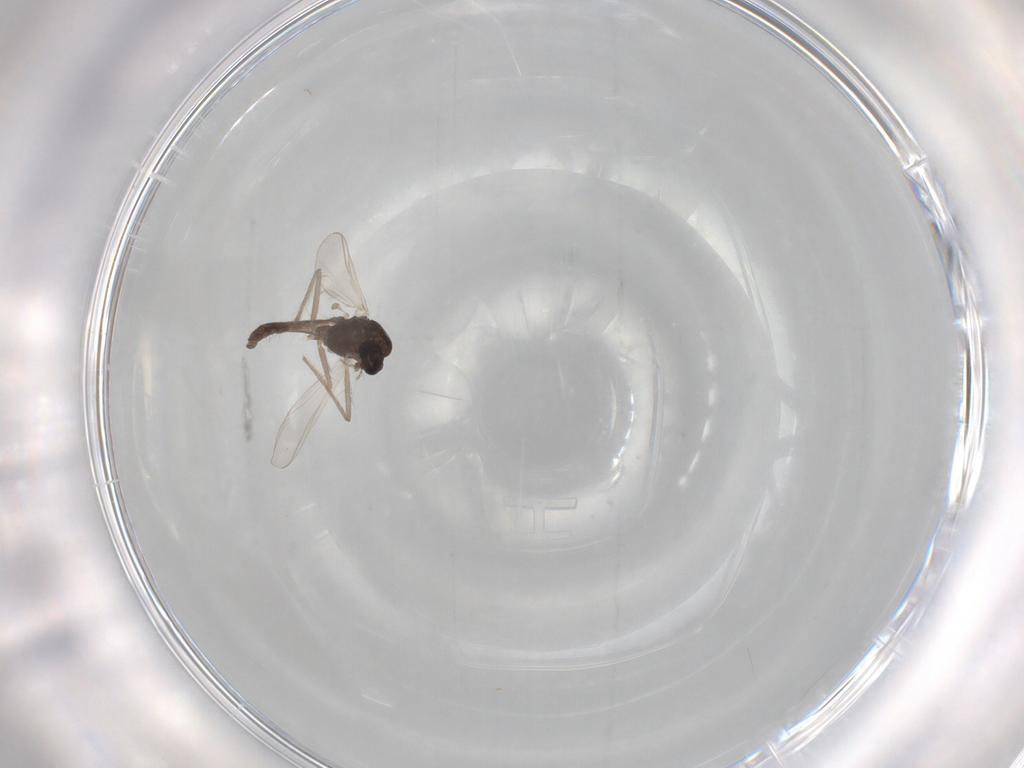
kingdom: Animalia
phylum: Arthropoda
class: Insecta
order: Diptera
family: Chironomidae
